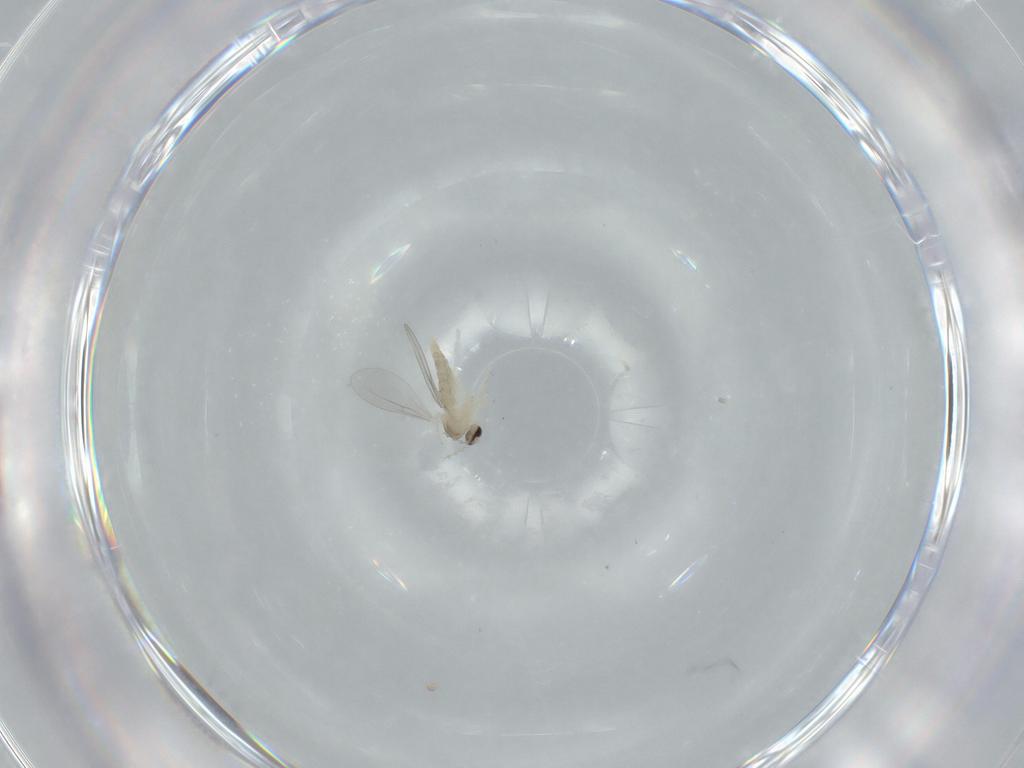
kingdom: Animalia
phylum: Arthropoda
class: Insecta
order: Diptera
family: Cecidomyiidae
